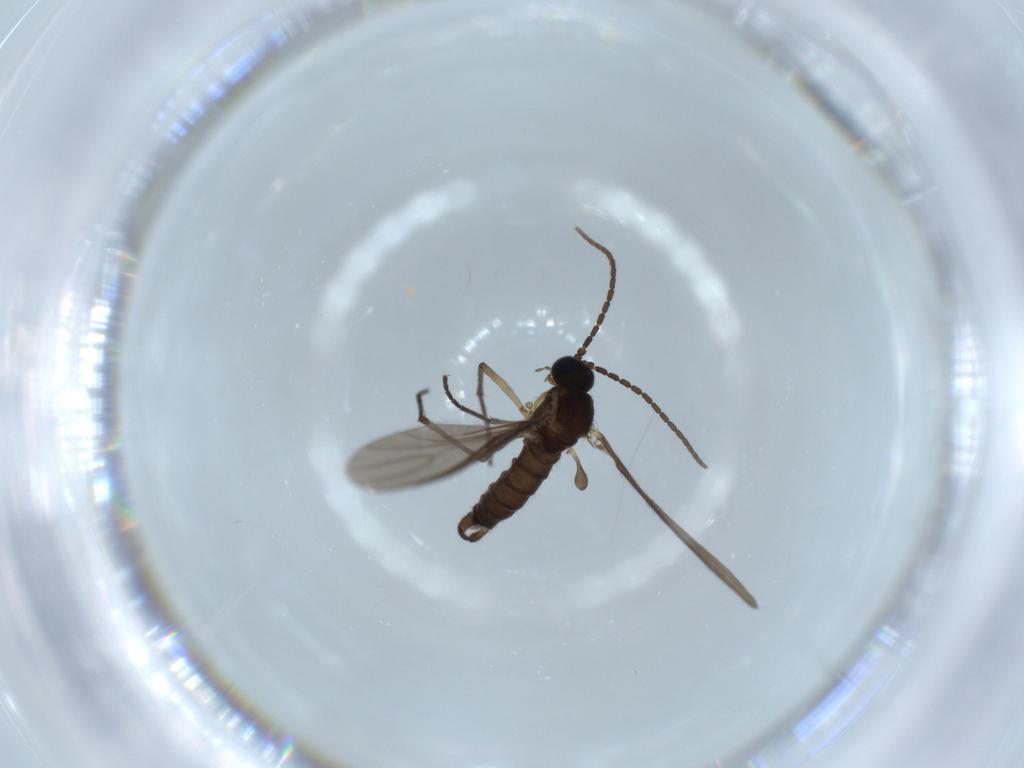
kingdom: Animalia
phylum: Arthropoda
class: Insecta
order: Diptera
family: Sciaridae
